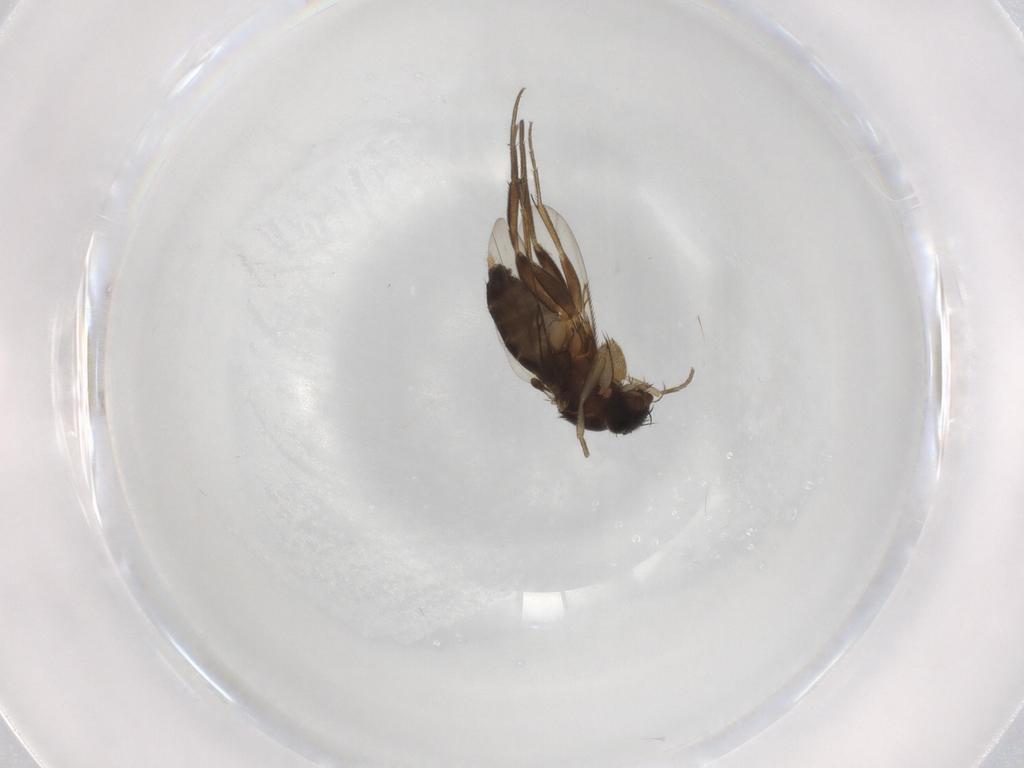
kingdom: Animalia
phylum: Arthropoda
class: Insecta
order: Diptera
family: Phoridae
